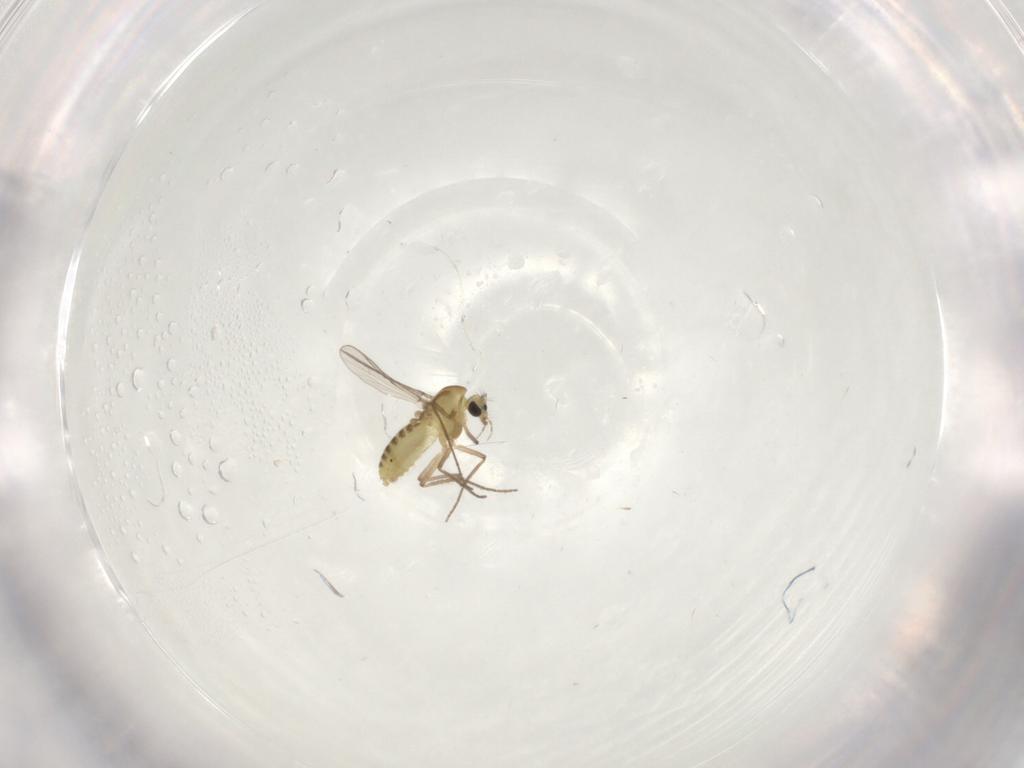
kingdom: Animalia
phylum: Arthropoda
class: Insecta
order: Diptera
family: Chironomidae
